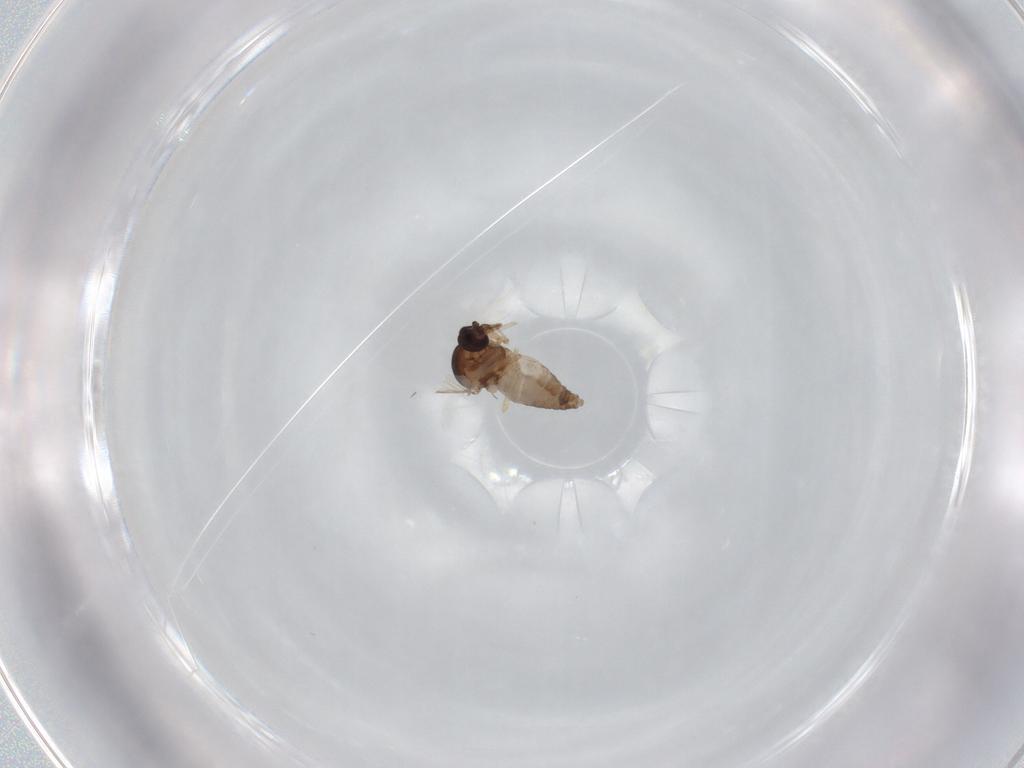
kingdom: Animalia
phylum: Arthropoda
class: Insecta
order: Diptera
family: Ceratopogonidae
